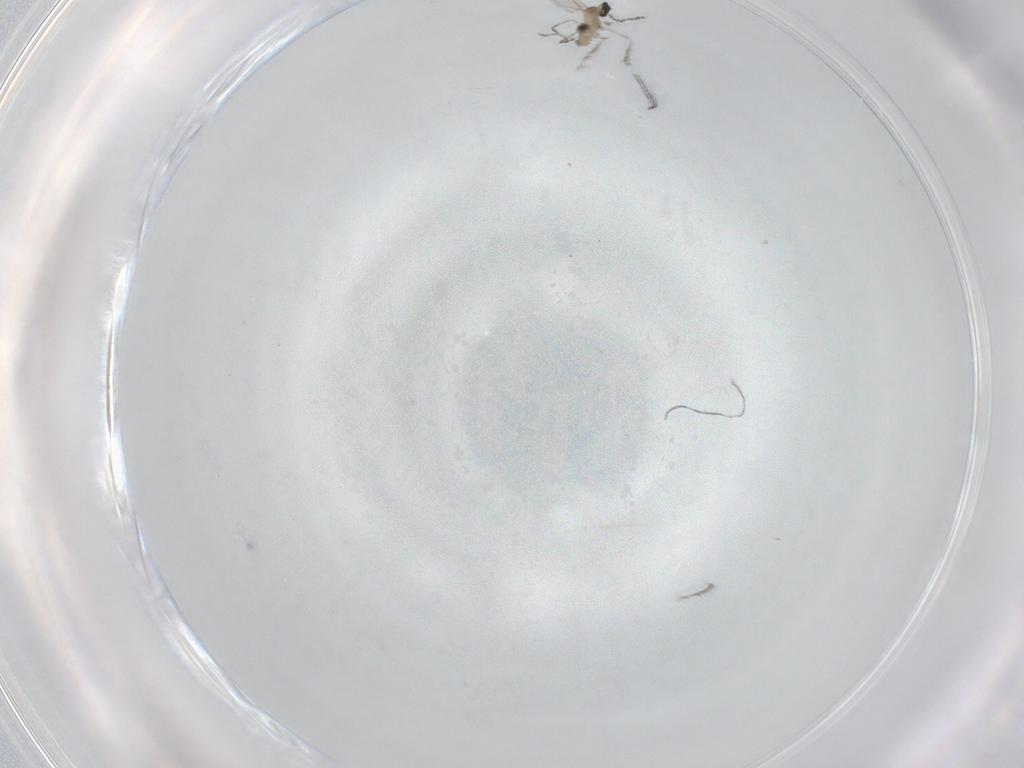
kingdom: Animalia
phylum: Arthropoda
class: Insecta
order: Diptera
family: Cecidomyiidae
